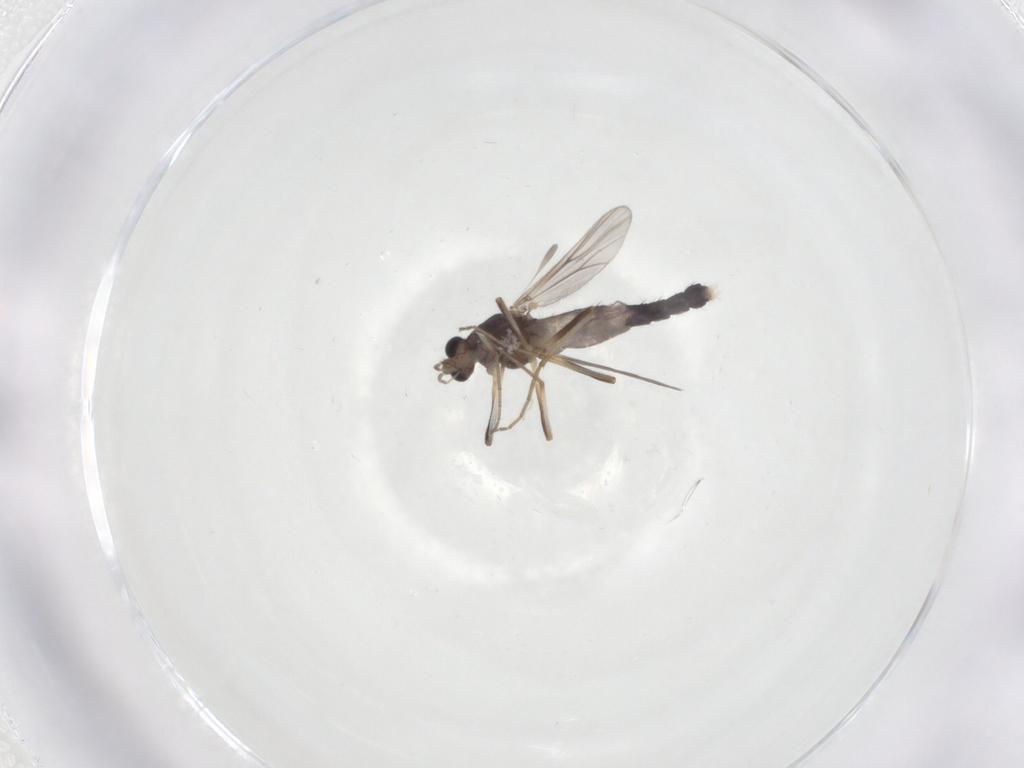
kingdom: Animalia
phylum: Arthropoda
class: Insecta
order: Diptera
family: Chironomidae
